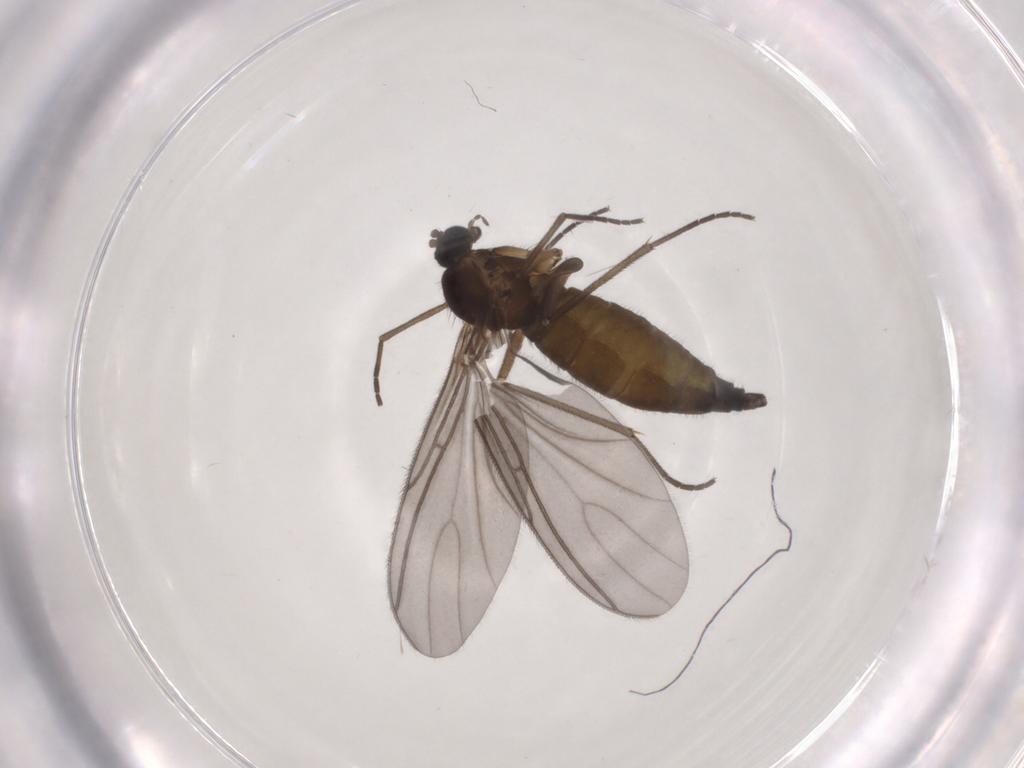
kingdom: Animalia
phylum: Arthropoda
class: Insecta
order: Diptera
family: Sciaridae
